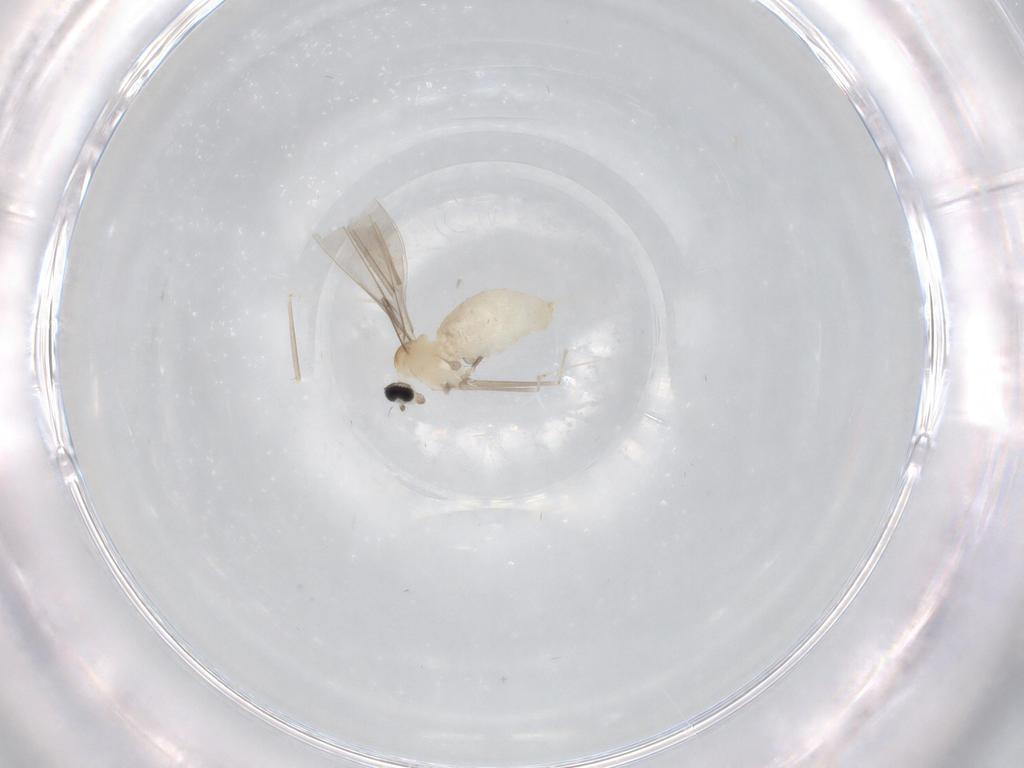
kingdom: Animalia
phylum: Arthropoda
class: Insecta
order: Diptera
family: Cecidomyiidae
